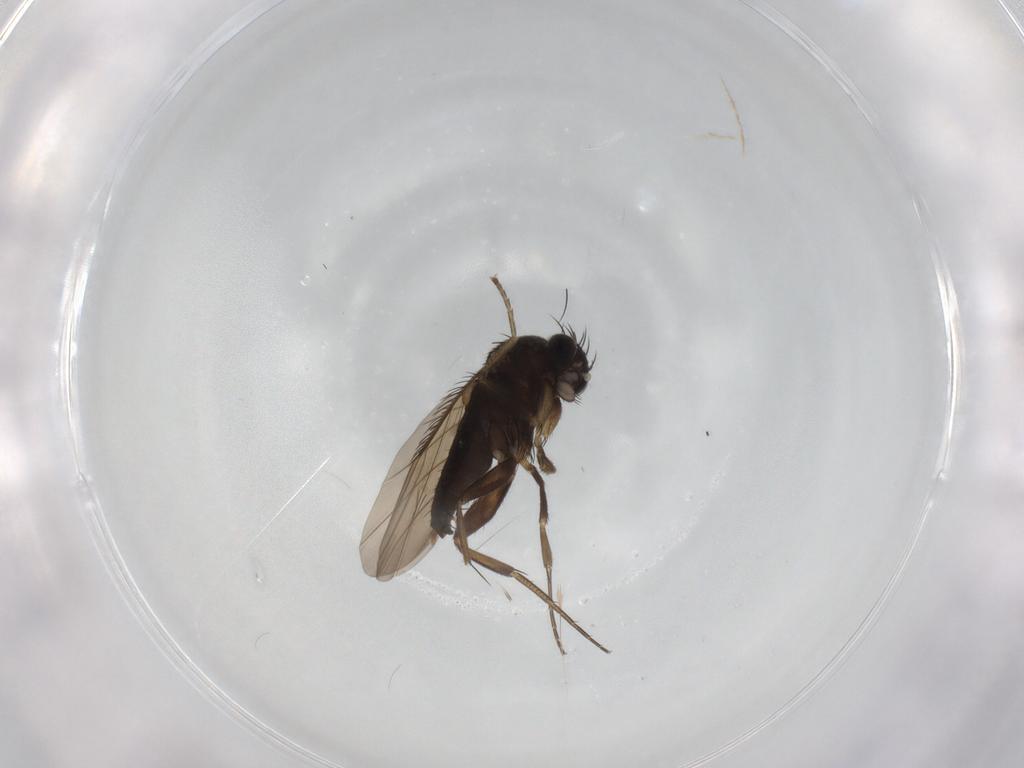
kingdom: Animalia
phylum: Arthropoda
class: Insecta
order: Diptera
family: Phoridae
